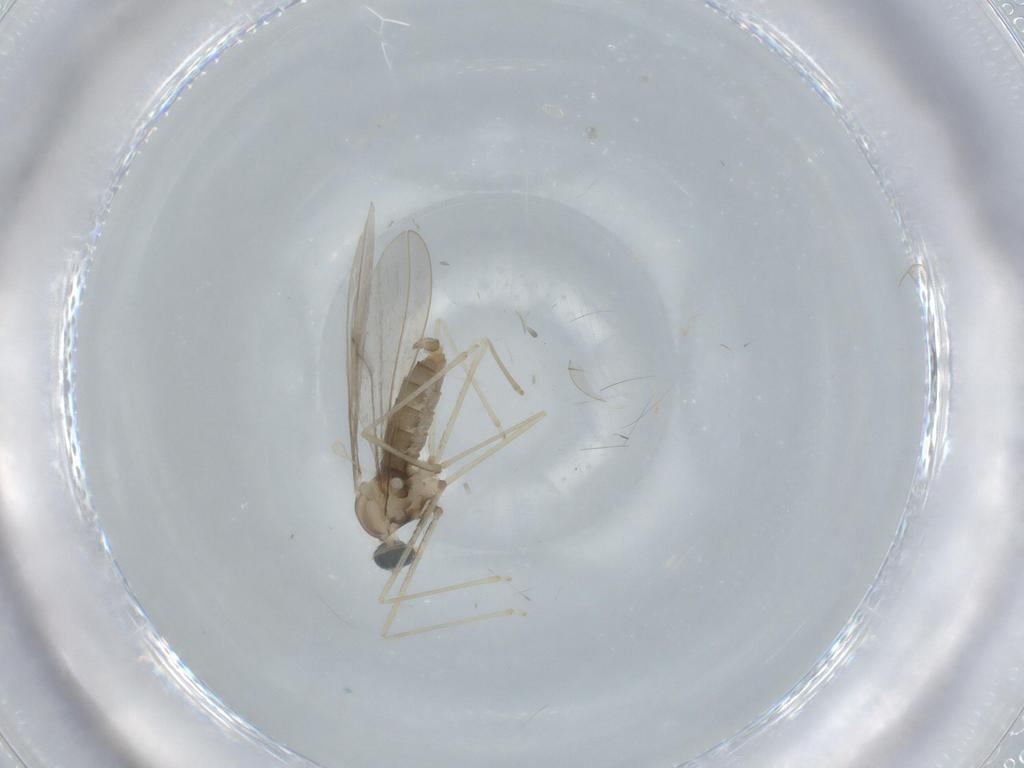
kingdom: Animalia
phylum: Arthropoda
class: Insecta
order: Diptera
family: Cecidomyiidae
